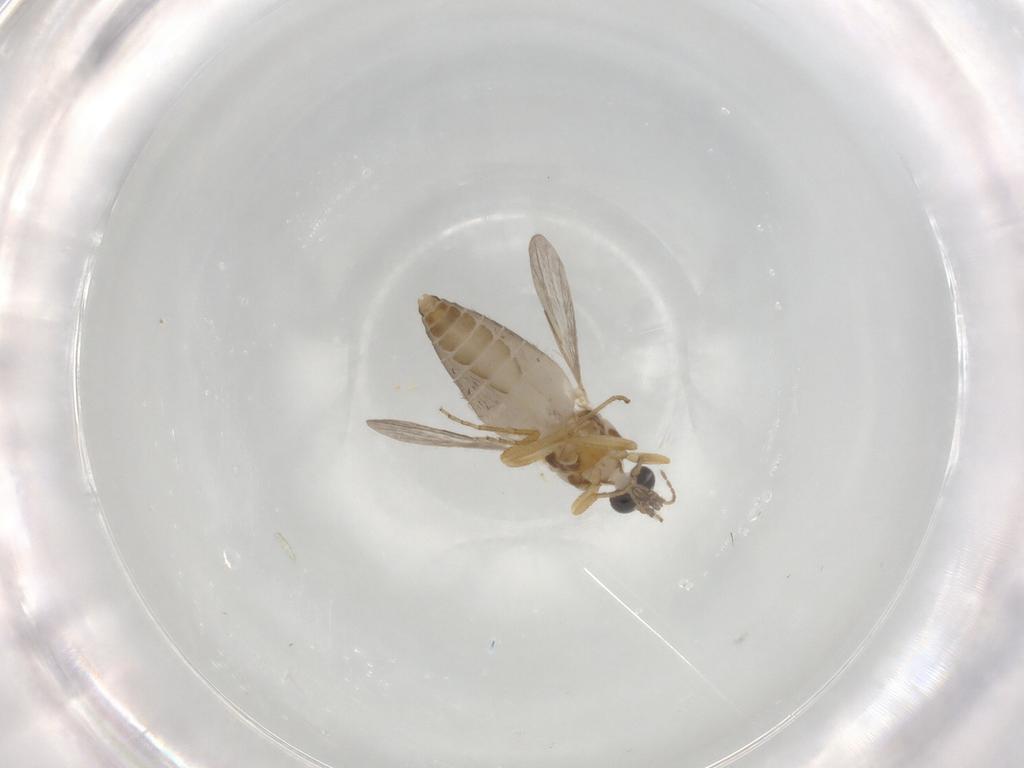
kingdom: Animalia
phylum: Arthropoda
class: Insecta
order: Diptera
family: Ceratopogonidae
